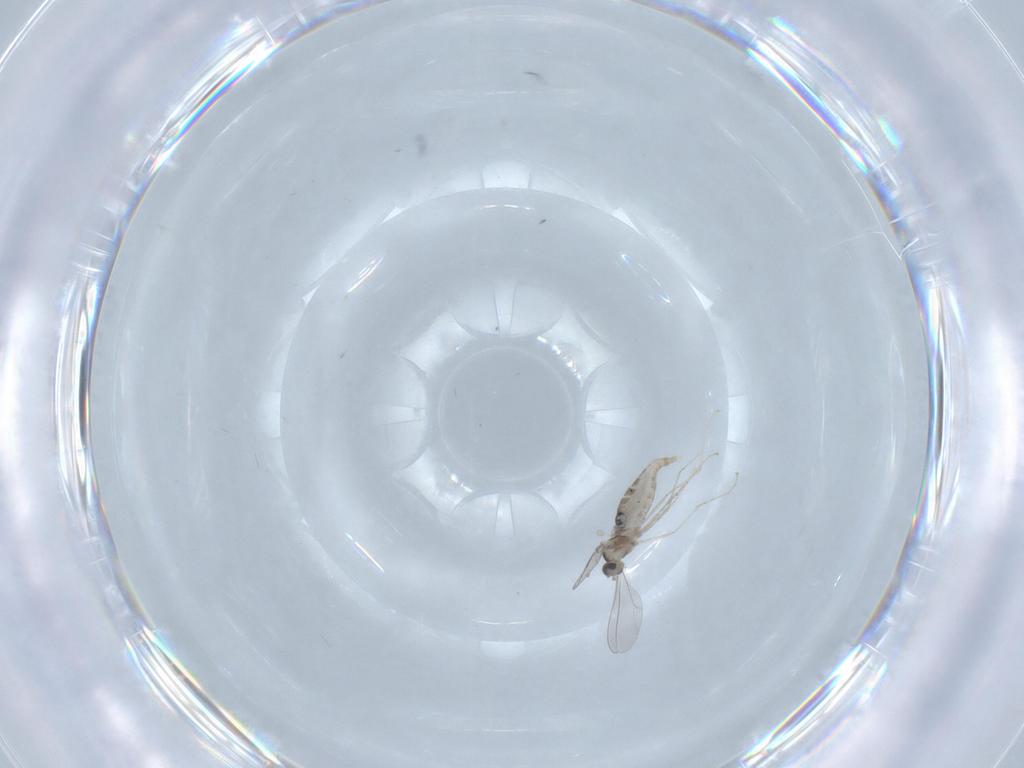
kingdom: Animalia
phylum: Arthropoda
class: Insecta
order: Diptera
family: Cecidomyiidae
